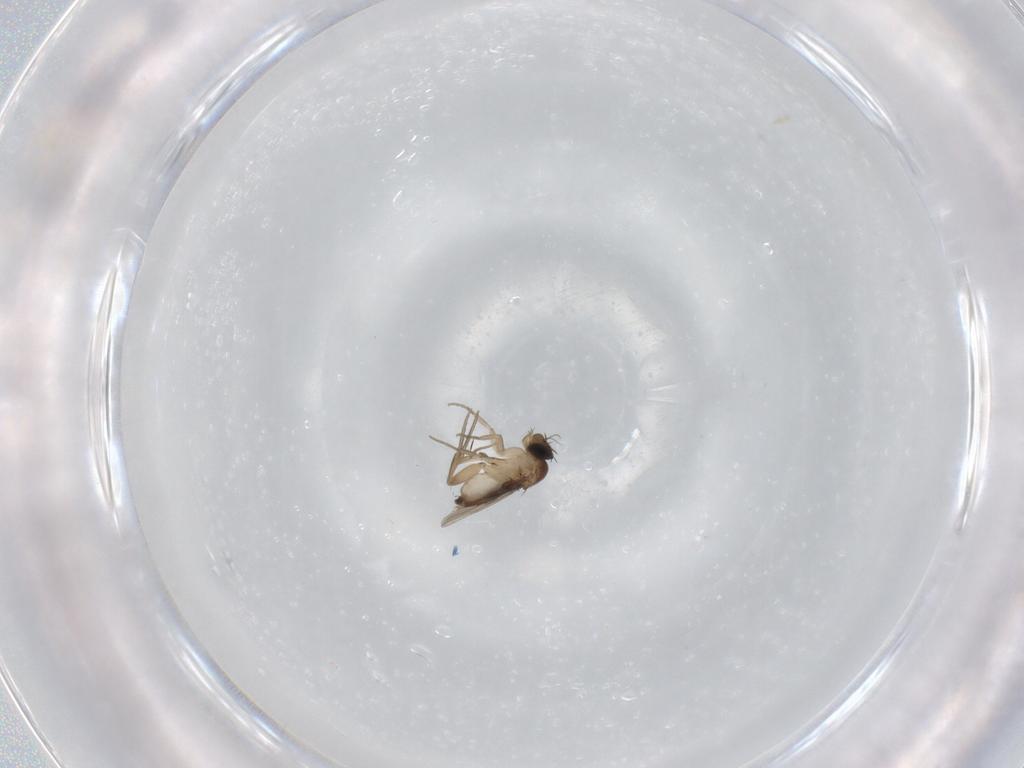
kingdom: Animalia
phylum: Arthropoda
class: Insecta
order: Diptera
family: Phoridae
